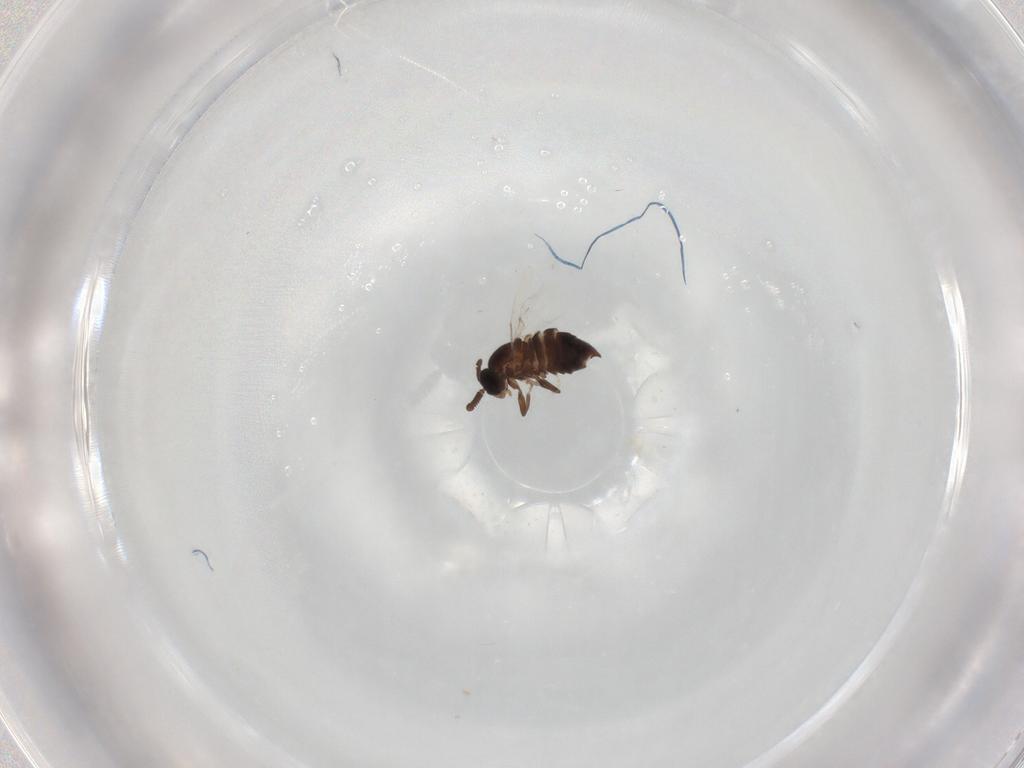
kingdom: Animalia
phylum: Arthropoda
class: Insecta
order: Diptera
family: Scatopsidae
